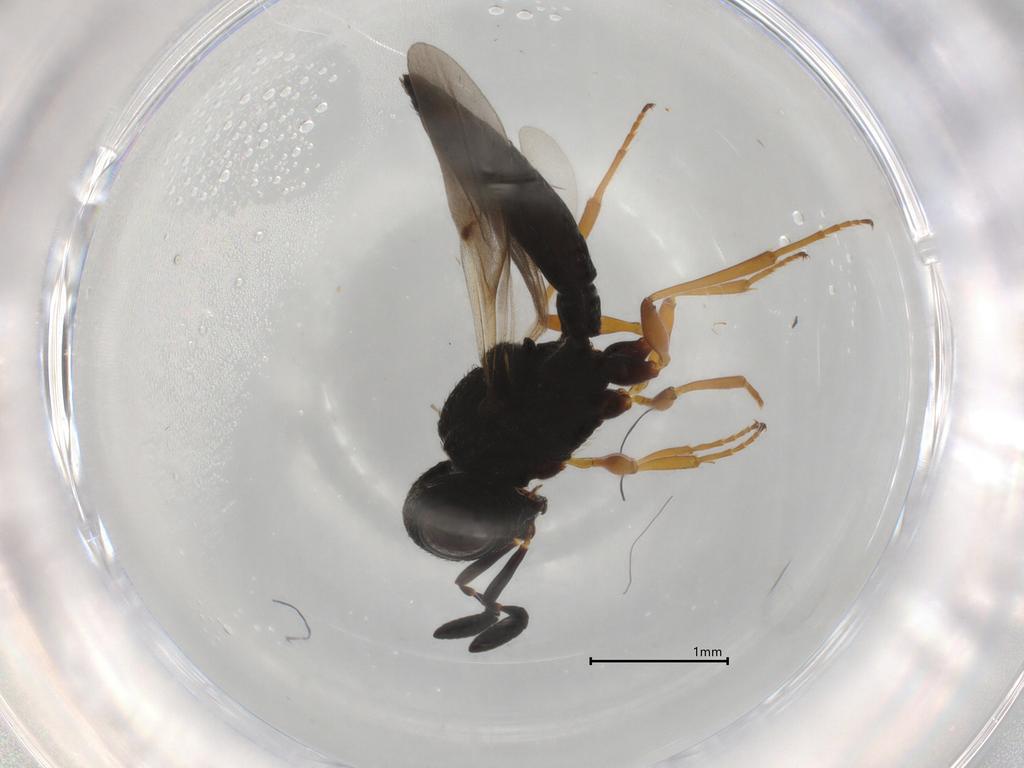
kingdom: Animalia
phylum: Arthropoda
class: Insecta
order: Hymenoptera
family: Scelionidae
